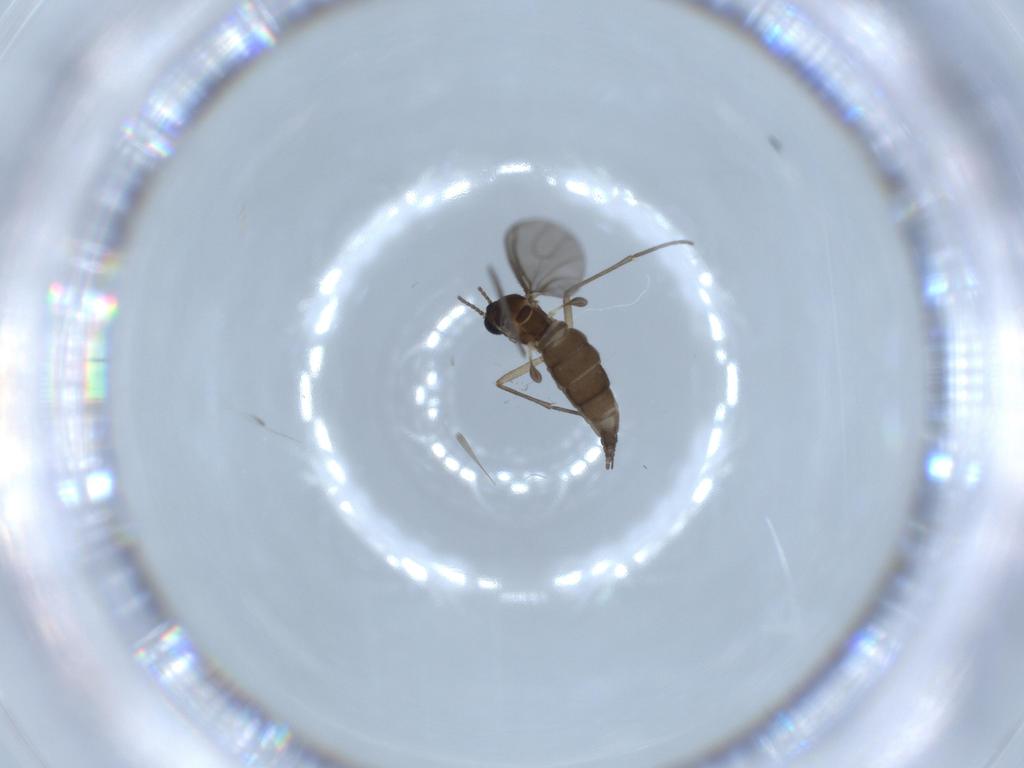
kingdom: Animalia
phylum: Arthropoda
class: Insecta
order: Diptera
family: Sciaridae
